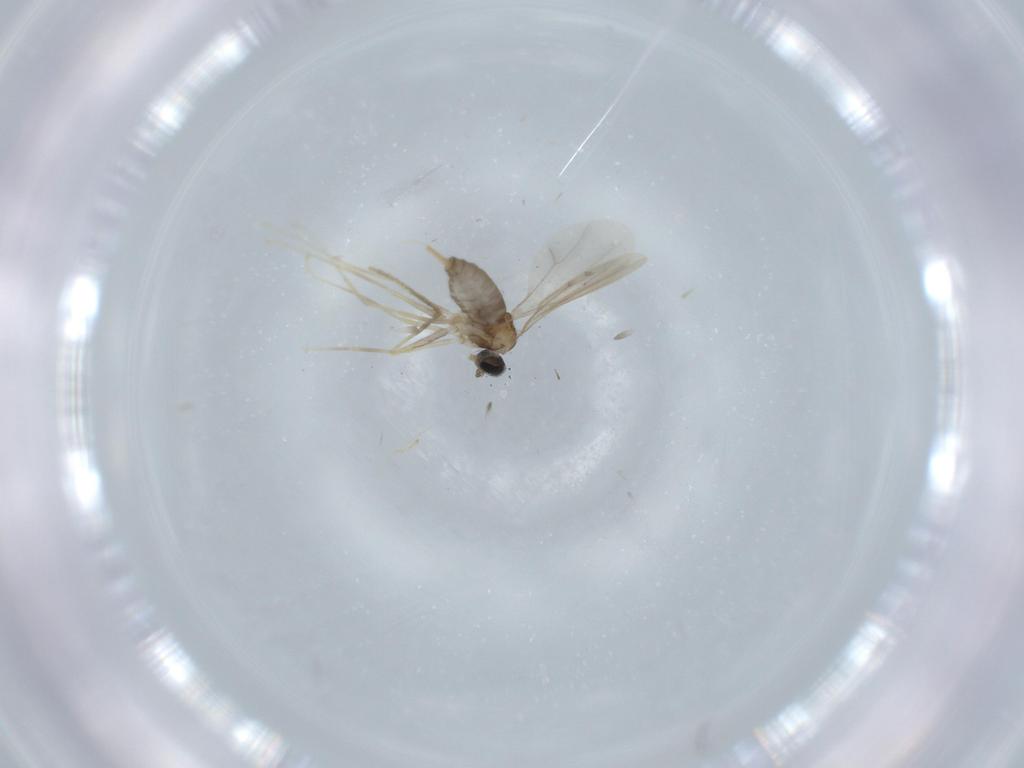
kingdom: Animalia
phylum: Arthropoda
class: Insecta
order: Diptera
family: Cecidomyiidae
